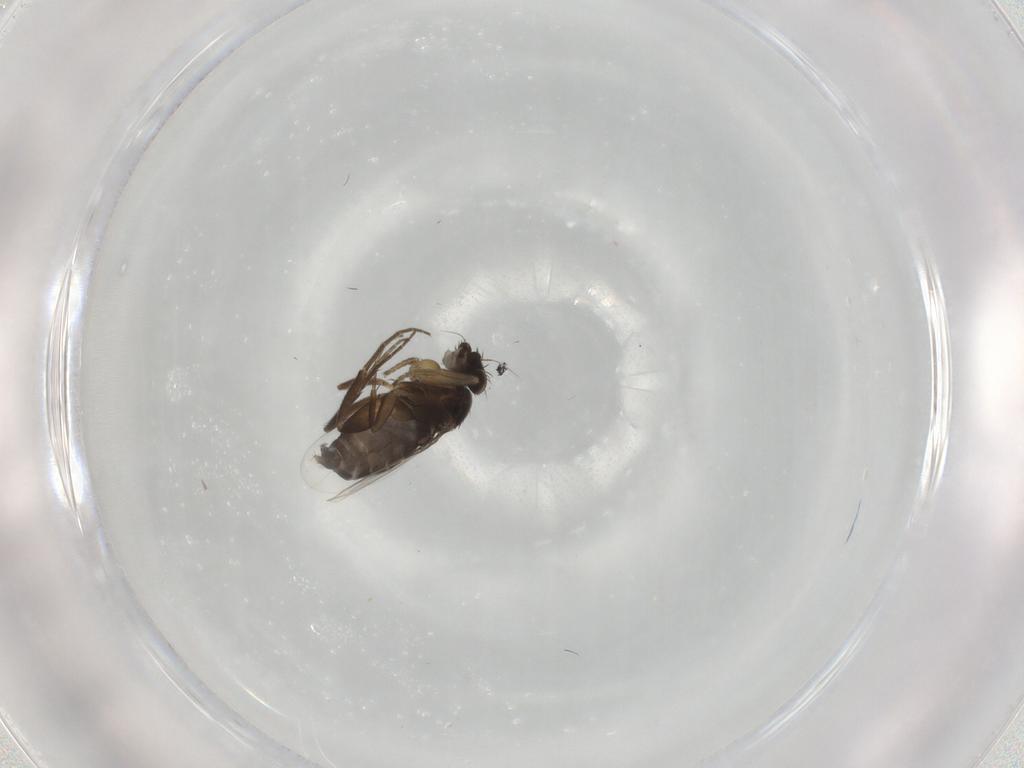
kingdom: Animalia
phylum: Arthropoda
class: Insecta
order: Diptera
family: Phoridae
